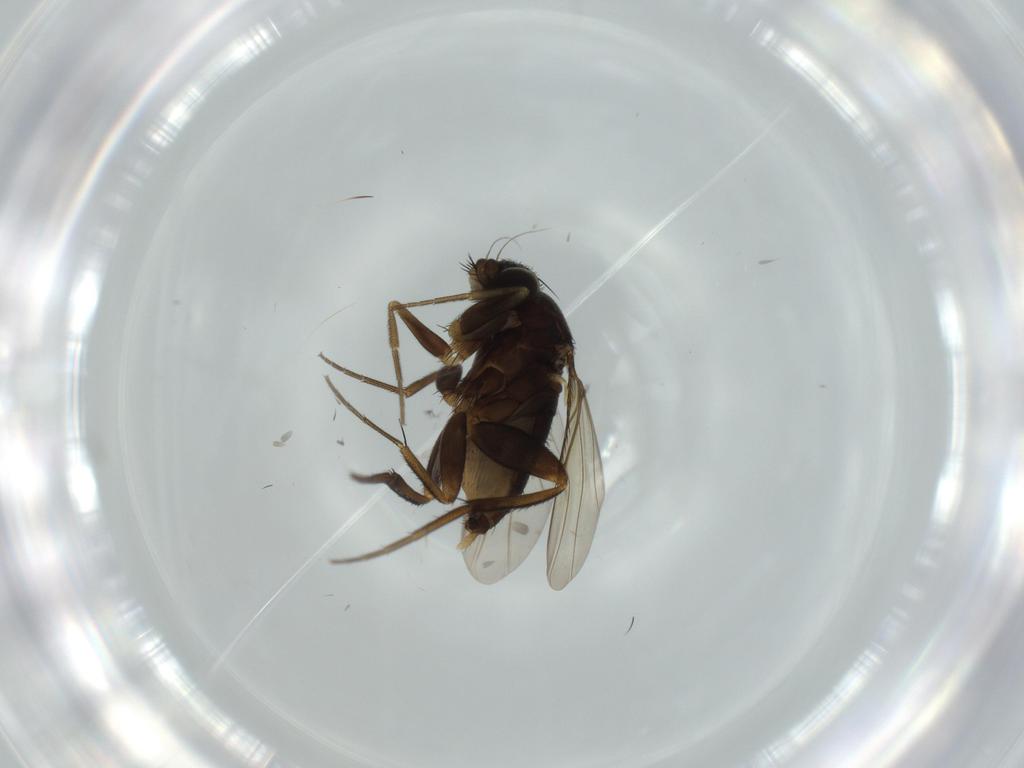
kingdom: Animalia
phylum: Arthropoda
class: Insecta
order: Diptera
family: Phoridae
